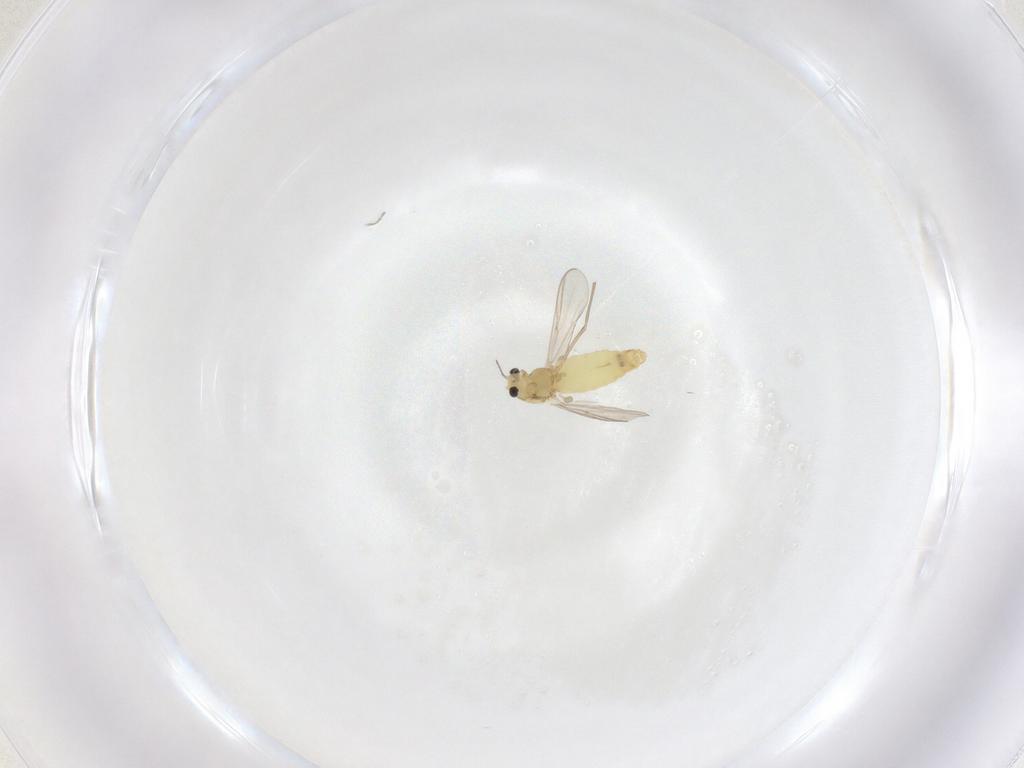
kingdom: Animalia
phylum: Arthropoda
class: Insecta
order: Diptera
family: Chironomidae
